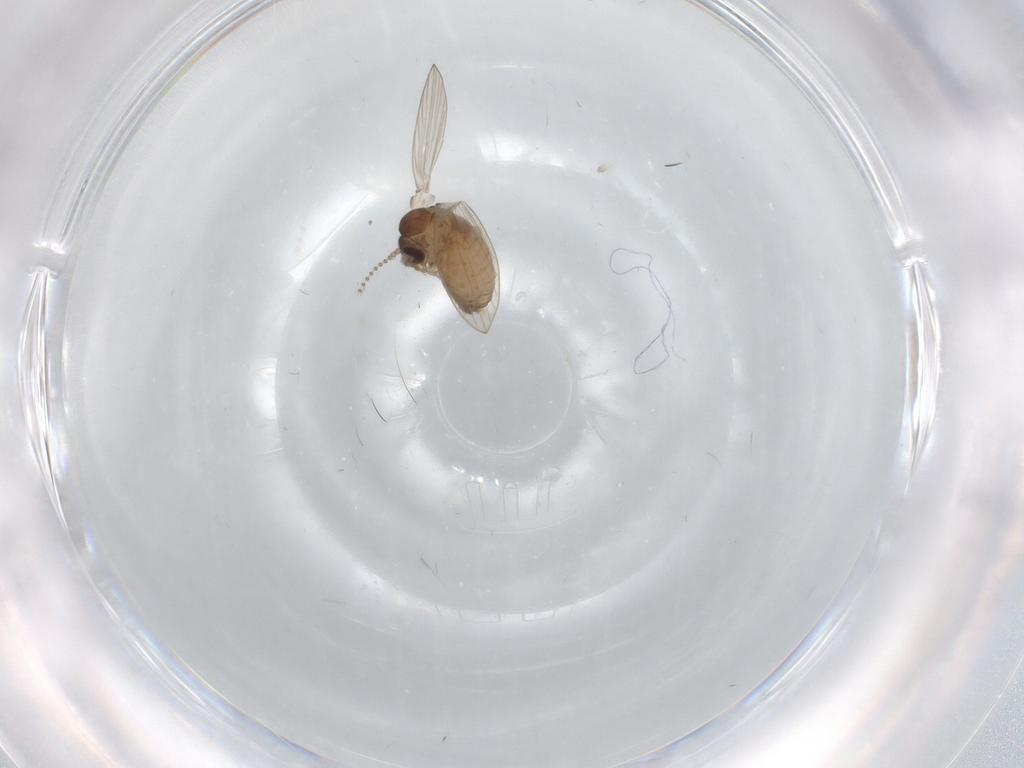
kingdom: Animalia
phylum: Arthropoda
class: Insecta
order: Diptera
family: Psychodidae
